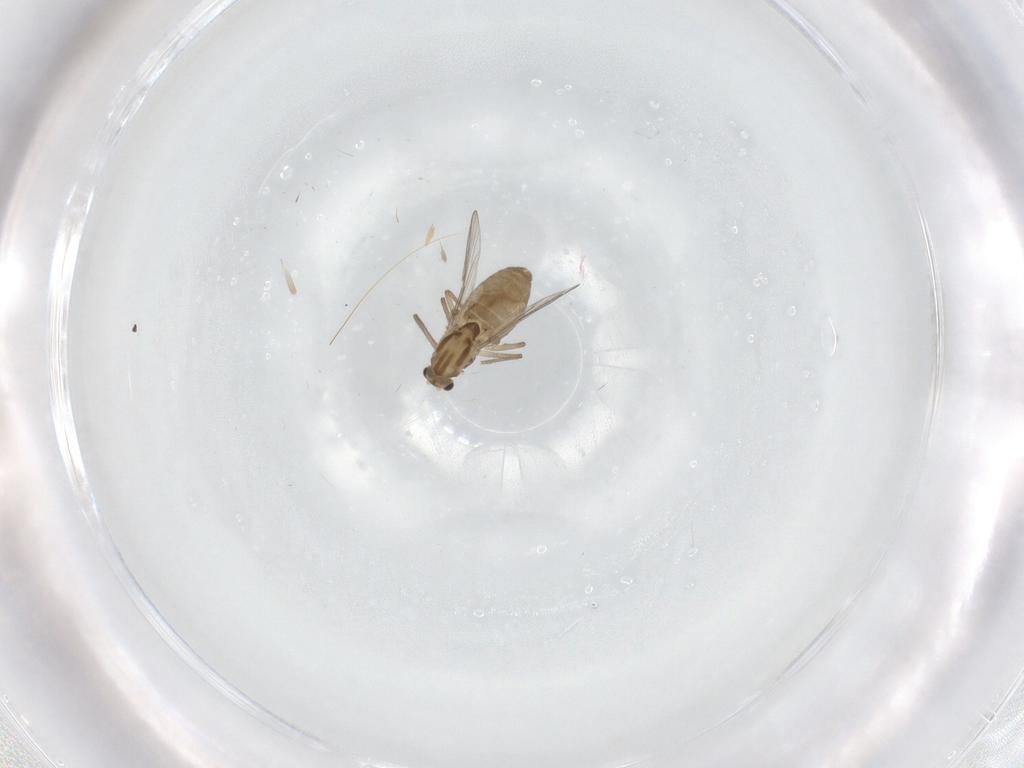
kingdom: Animalia
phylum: Arthropoda
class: Insecta
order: Diptera
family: Chironomidae
